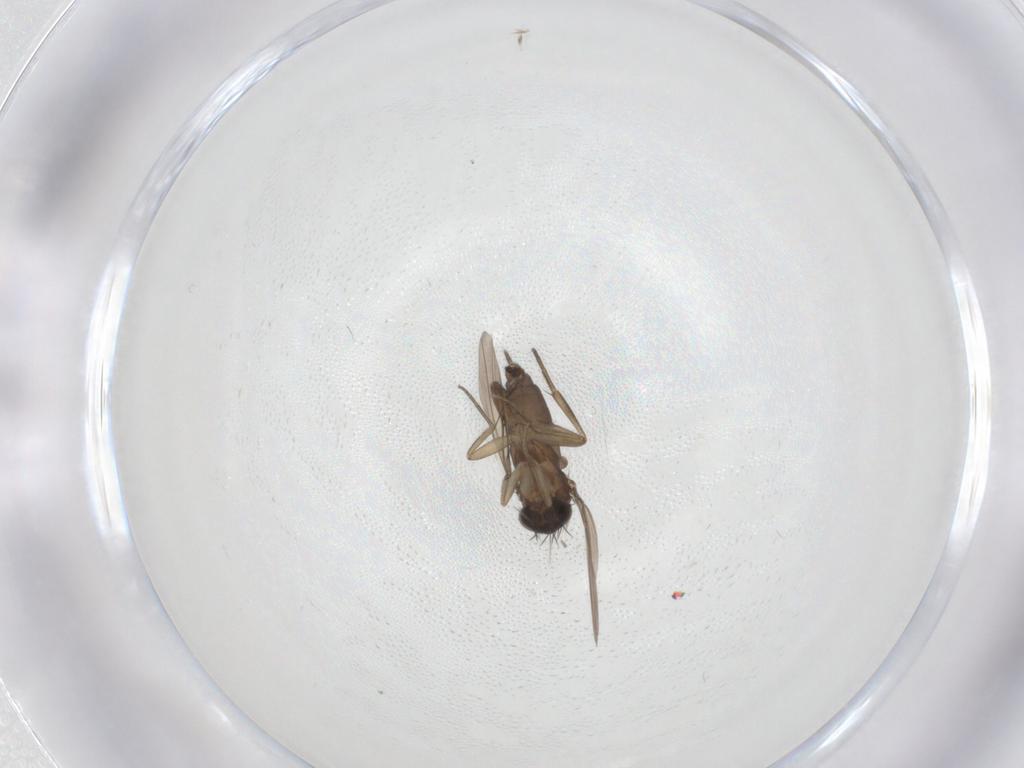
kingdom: Animalia
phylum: Arthropoda
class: Insecta
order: Diptera
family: Phoridae
